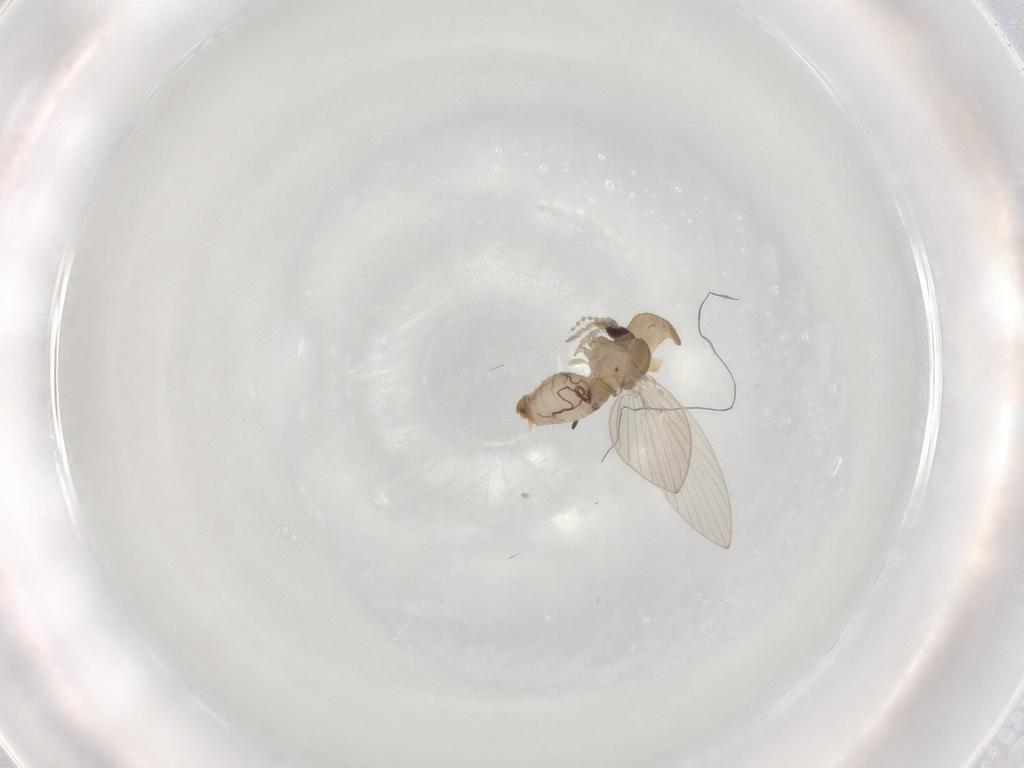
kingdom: Animalia
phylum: Arthropoda
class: Insecta
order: Diptera
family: Psychodidae
